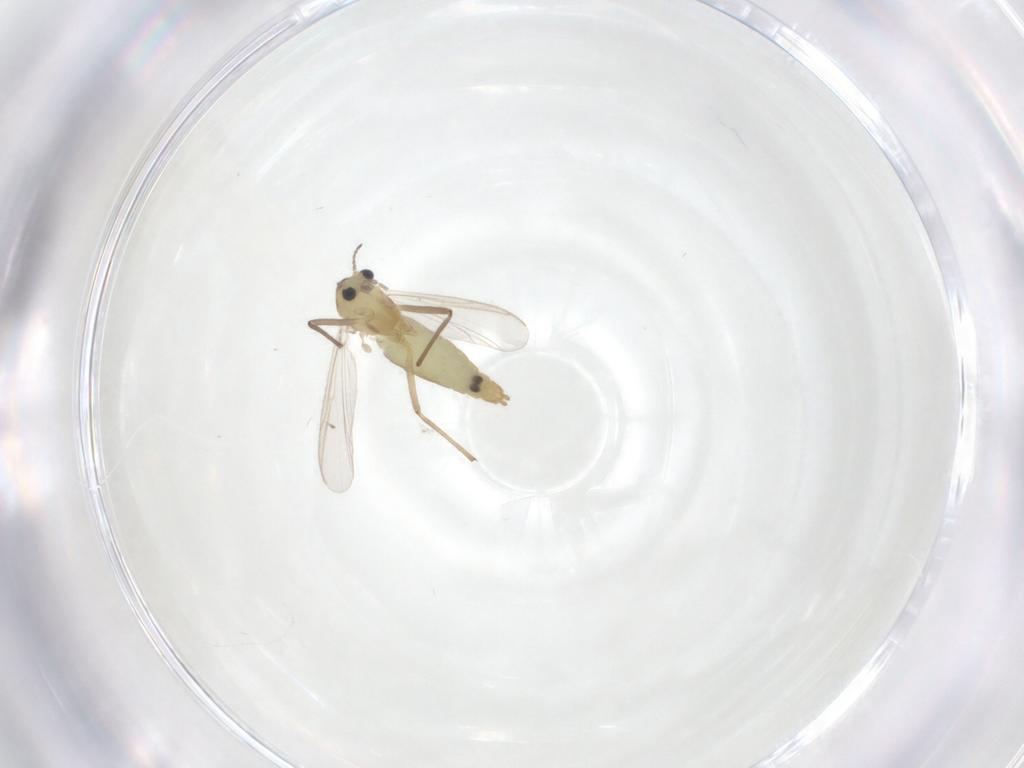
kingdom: Animalia
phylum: Arthropoda
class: Insecta
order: Diptera
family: Chironomidae
